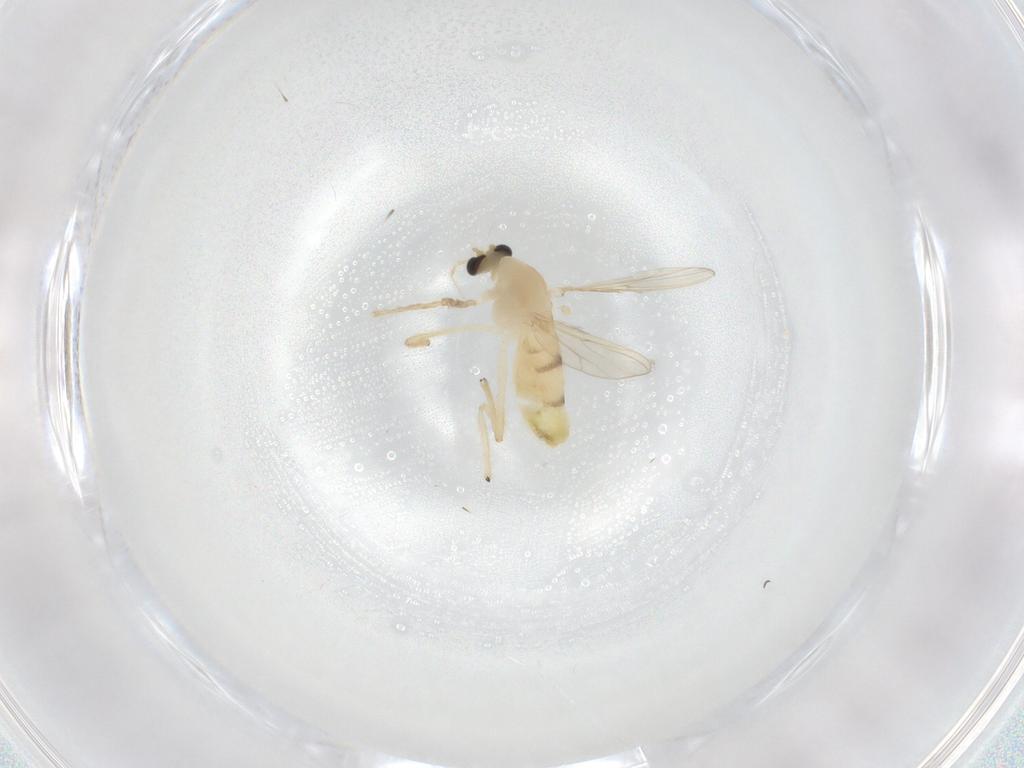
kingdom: Animalia
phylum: Arthropoda
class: Insecta
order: Diptera
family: Chironomidae
